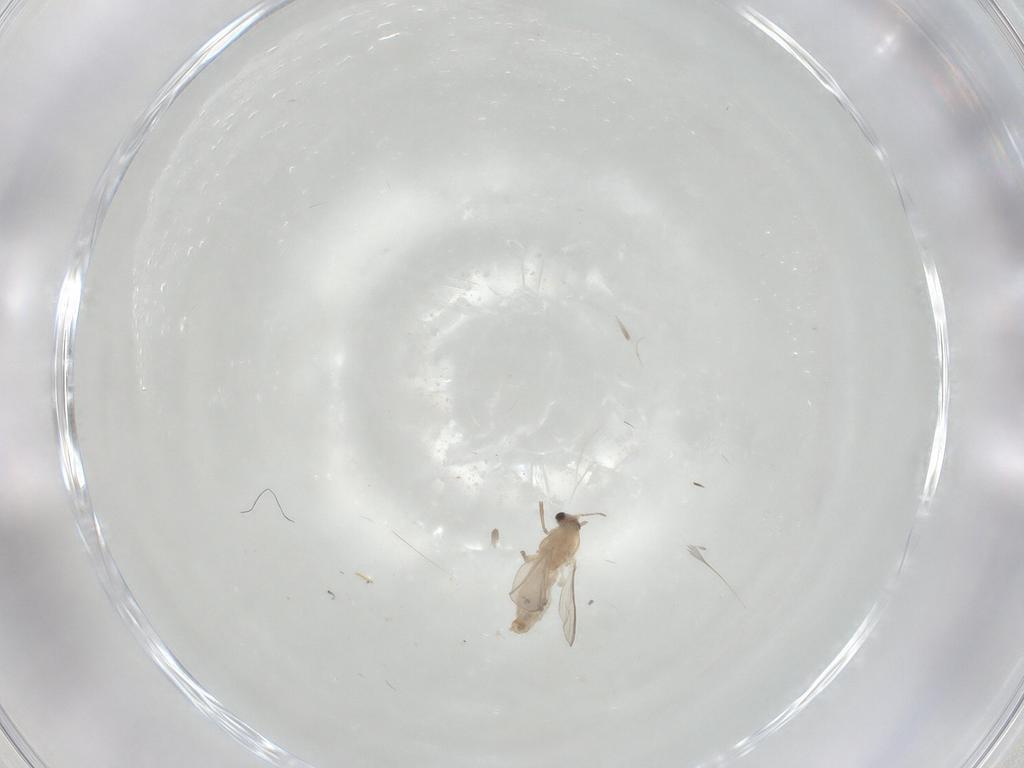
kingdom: Animalia
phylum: Arthropoda
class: Insecta
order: Diptera
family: Chironomidae
